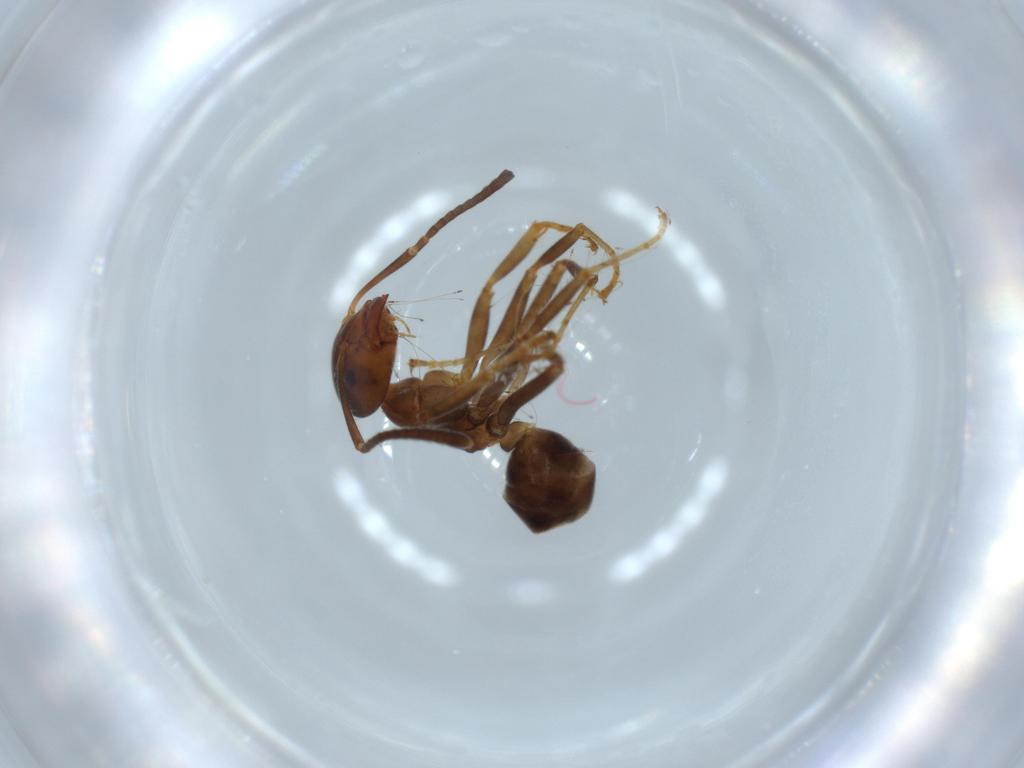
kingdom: Animalia
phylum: Arthropoda
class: Insecta
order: Hymenoptera
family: Formicidae
